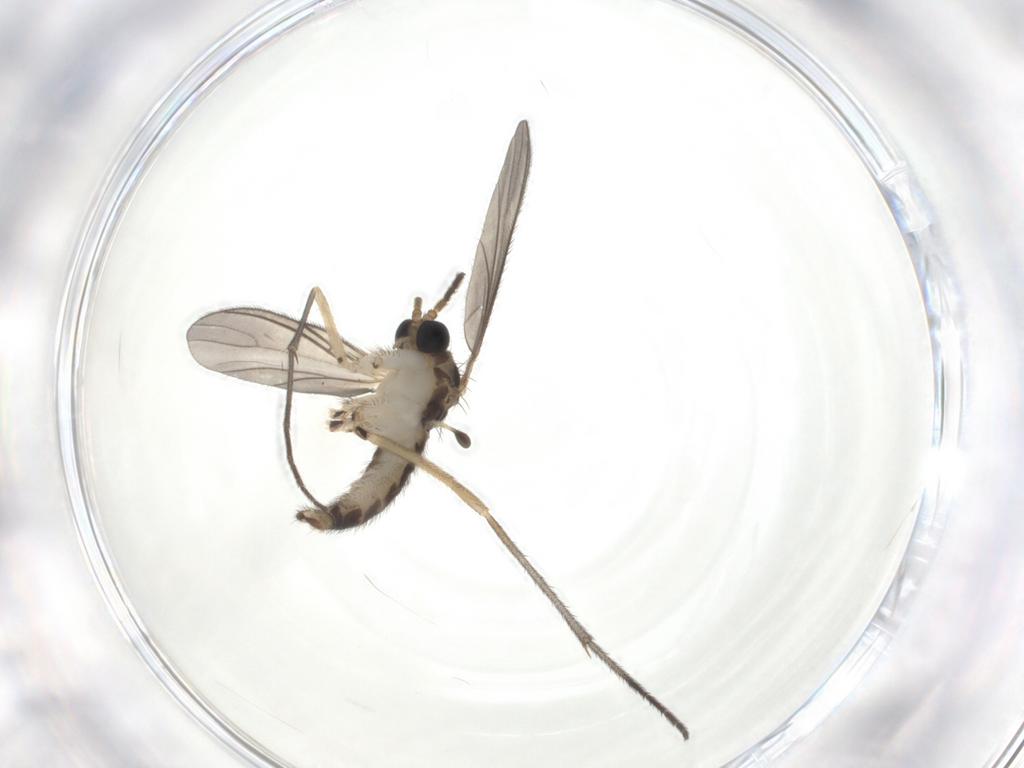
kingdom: Animalia
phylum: Arthropoda
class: Insecta
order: Diptera
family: Sciaridae
